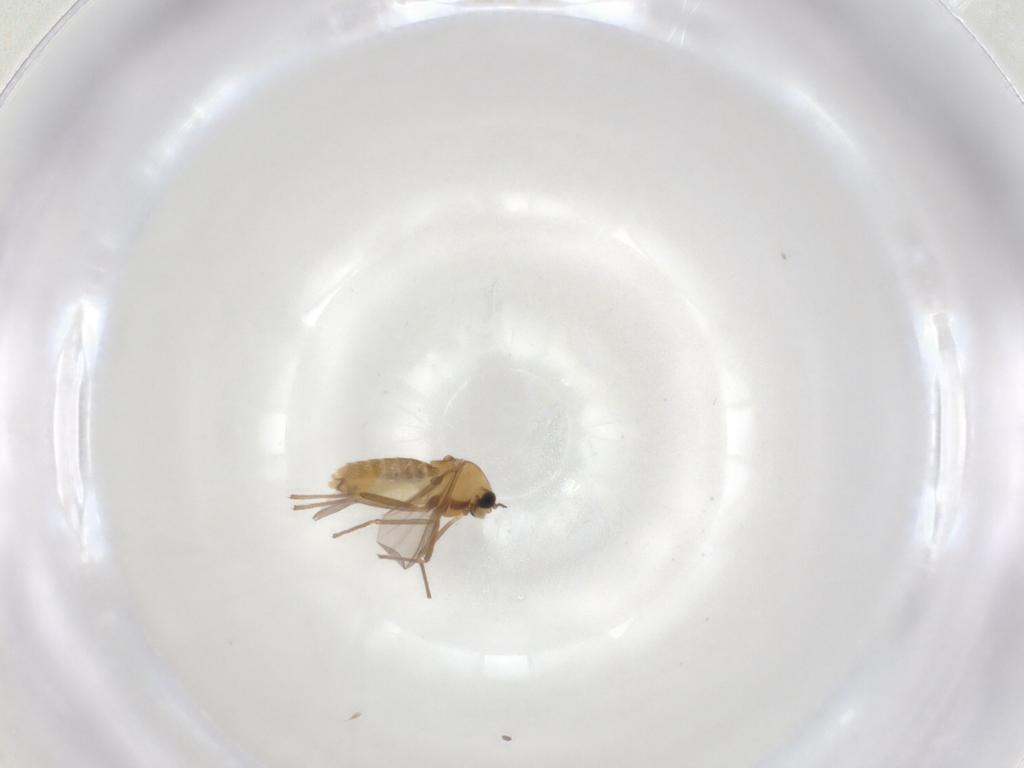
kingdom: Animalia
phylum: Arthropoda
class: Insecta
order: Diptera
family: Chironomidae
